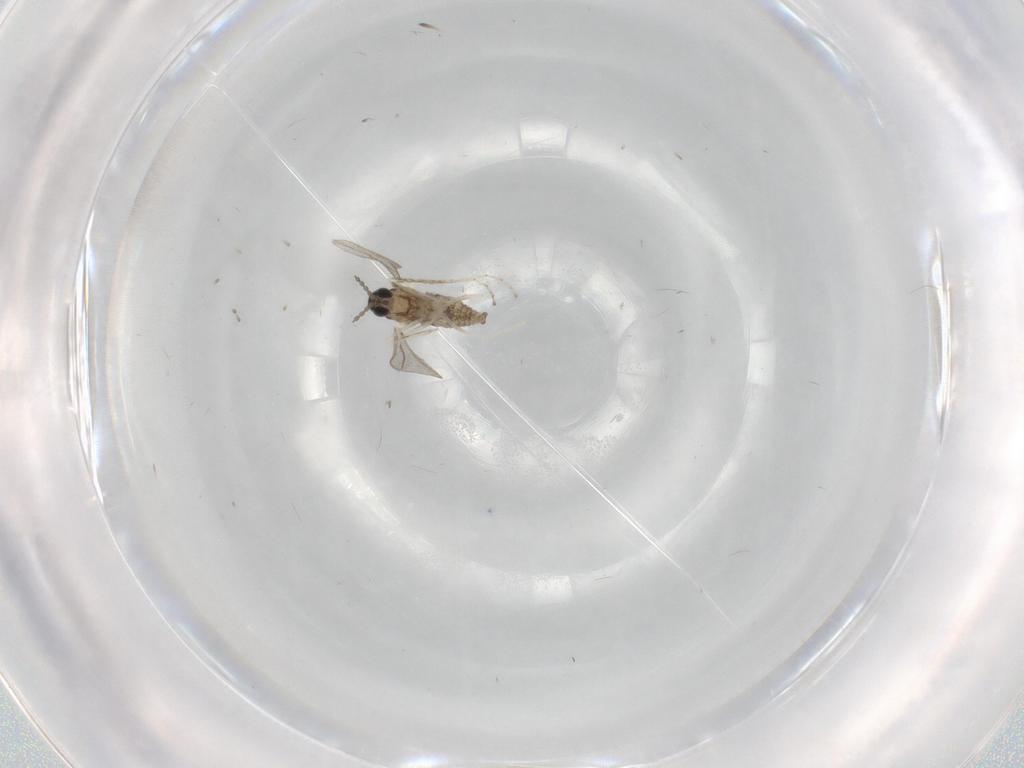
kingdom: Animalia
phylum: Arthropoda
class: Insecta
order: Diptera
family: Cecidomyiidae
